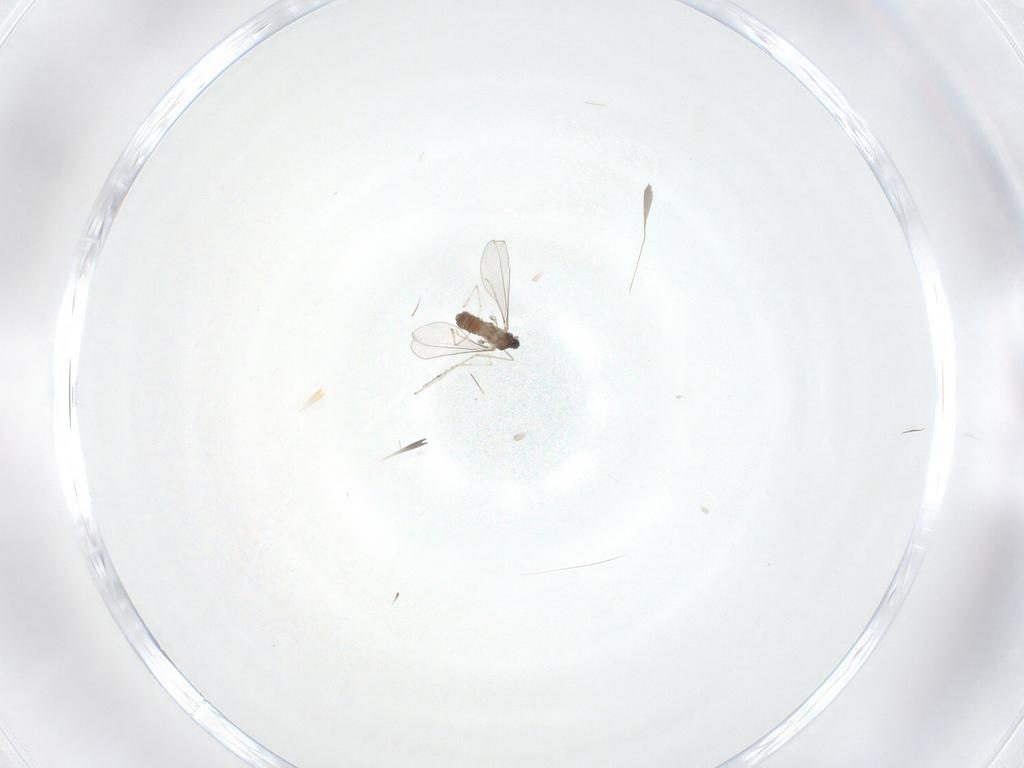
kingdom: Animalia
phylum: Arthropoda
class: Insecta
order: Diptera
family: Cecidomyiidae
